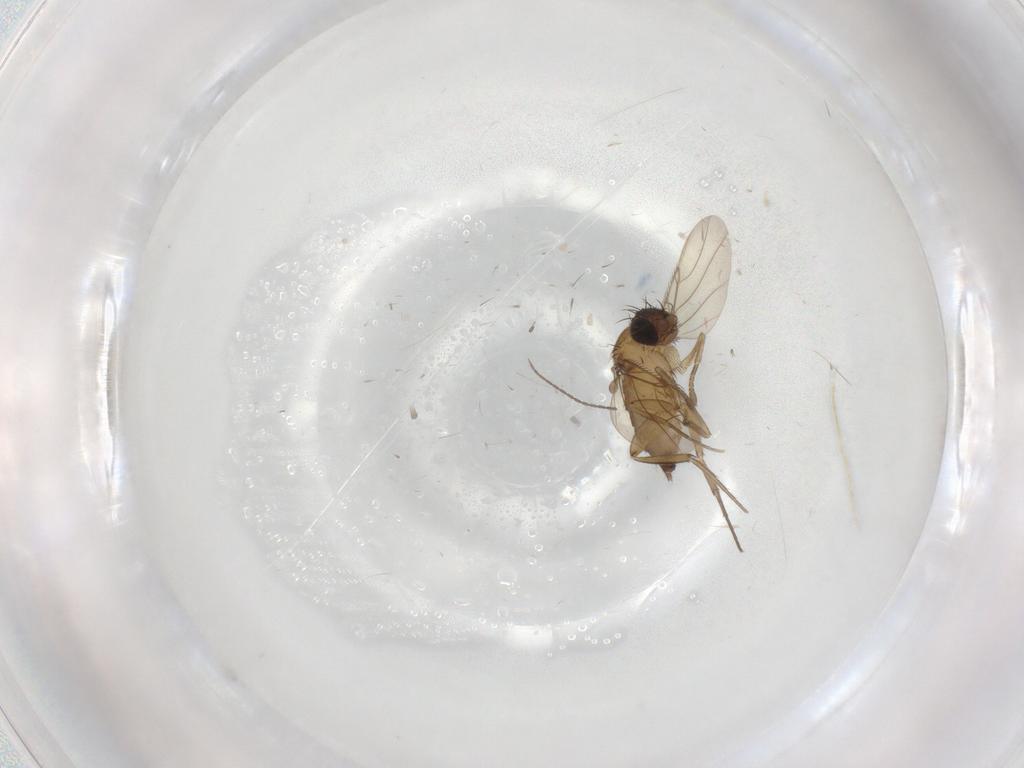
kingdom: Animalia
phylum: Arthropoda
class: Insecta
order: Diptera
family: Phoridae
